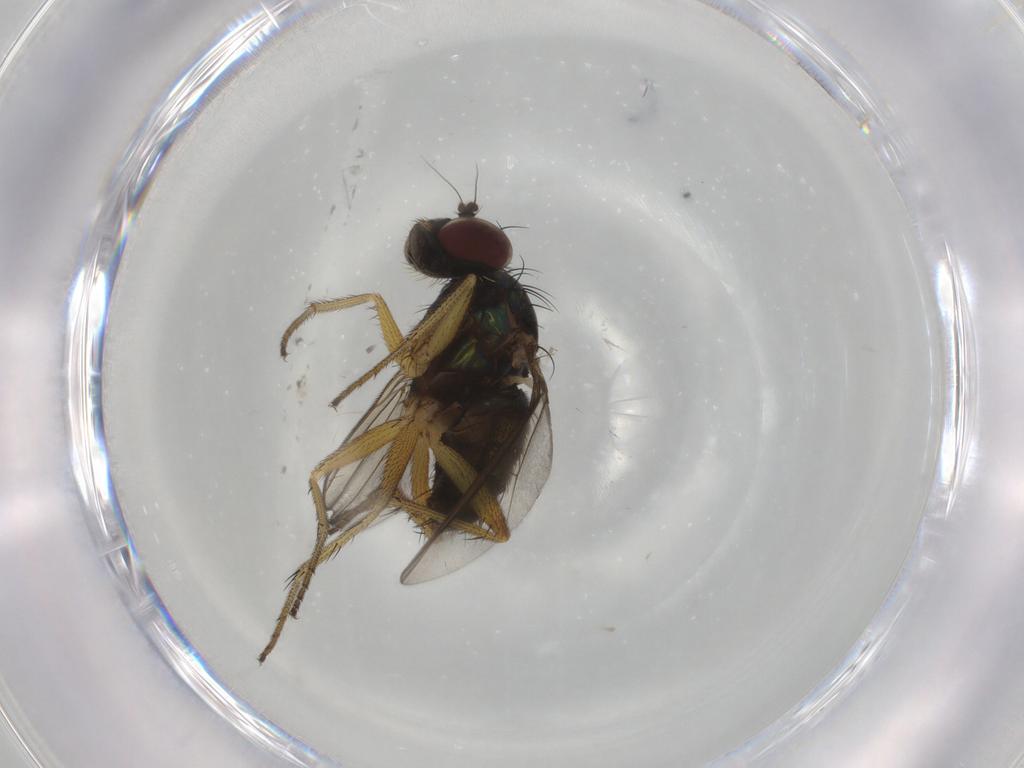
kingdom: Animalia
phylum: Arthropoda
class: Insecta
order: Diptera
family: Dolichopodidae
